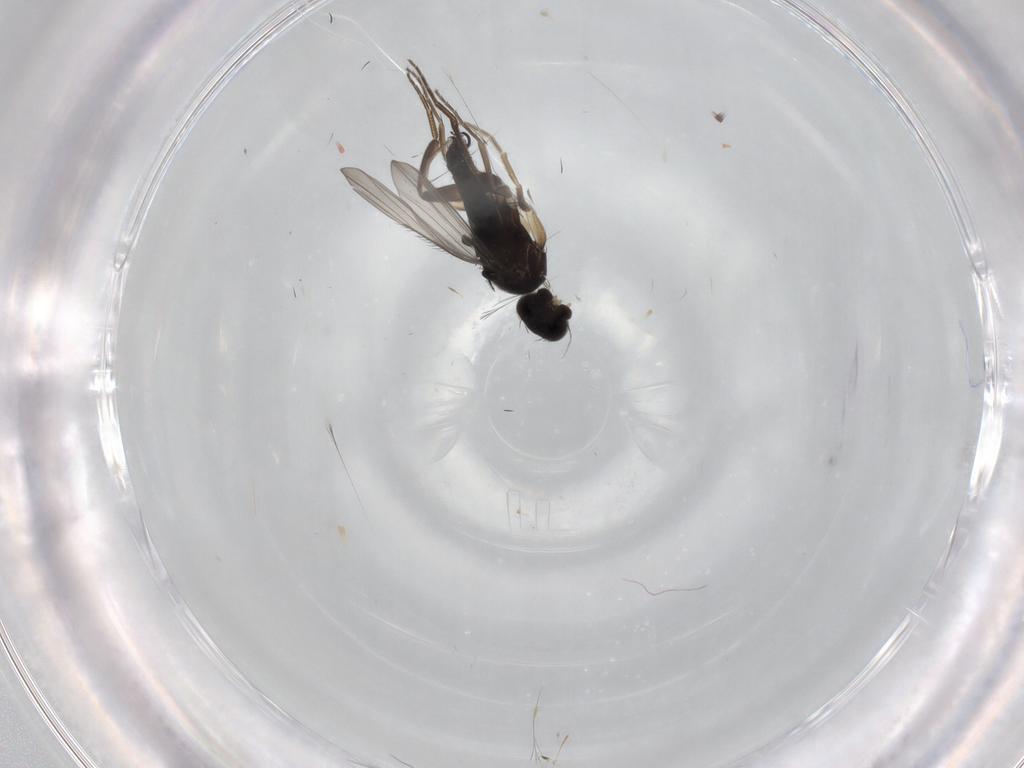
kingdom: Animalia
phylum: Arthropoda
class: Insecta
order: Diptera
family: Phoridae
